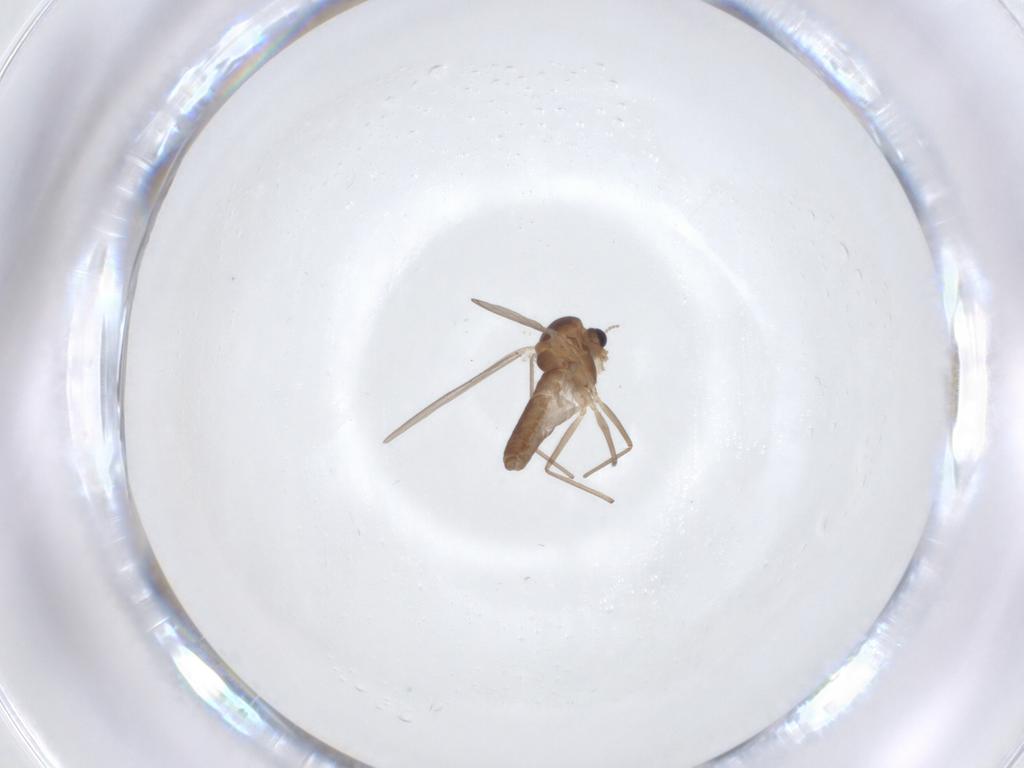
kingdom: Animalia
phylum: Arthropoda
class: Insecta
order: Diptera
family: Chironomidae
